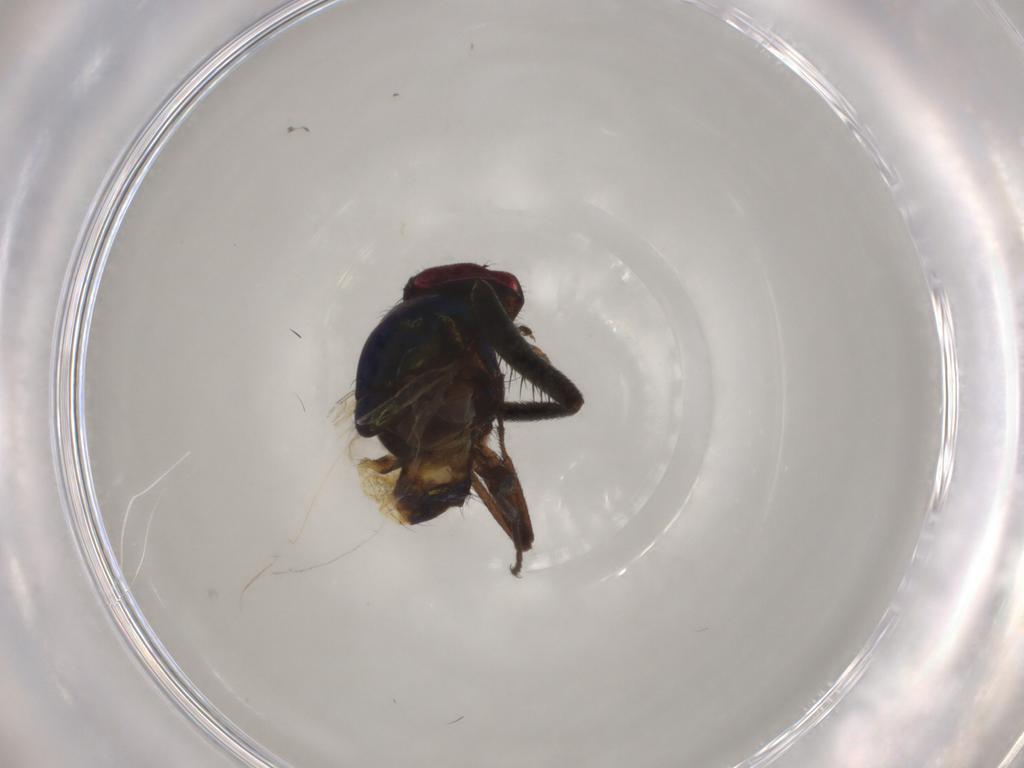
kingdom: Animalia
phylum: Arthropoda
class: Insecta
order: Diptera
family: Muscidae
